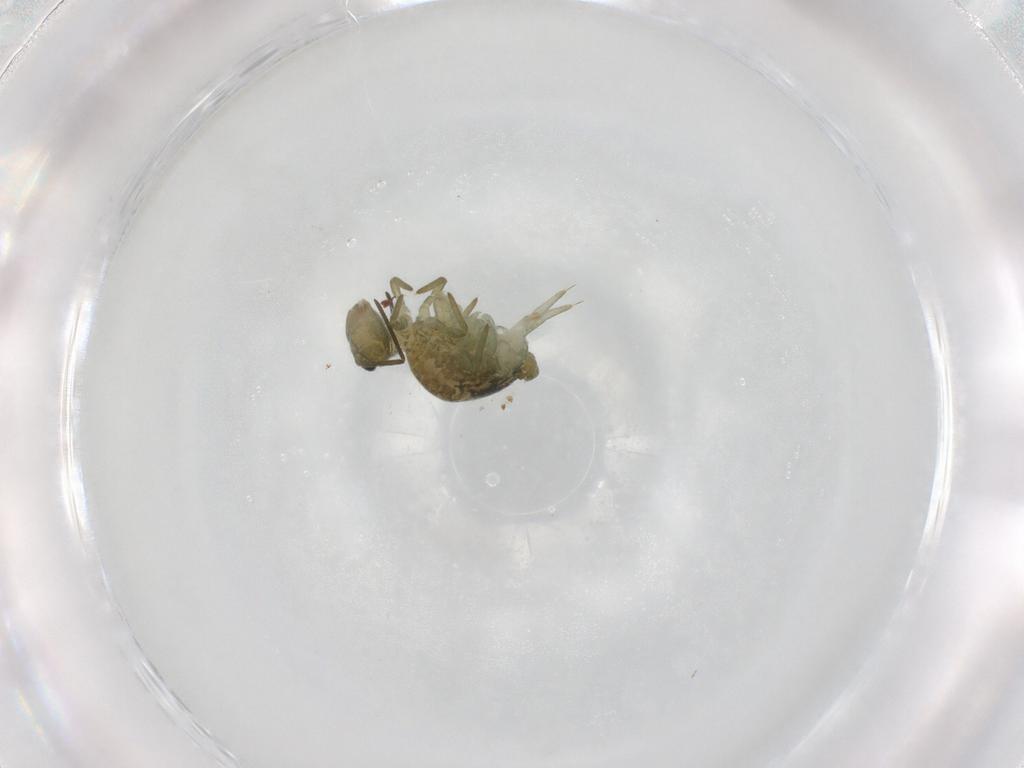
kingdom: Animalia
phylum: Arthropoda
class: Collembola
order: Symphypleona
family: Sminthuridae
